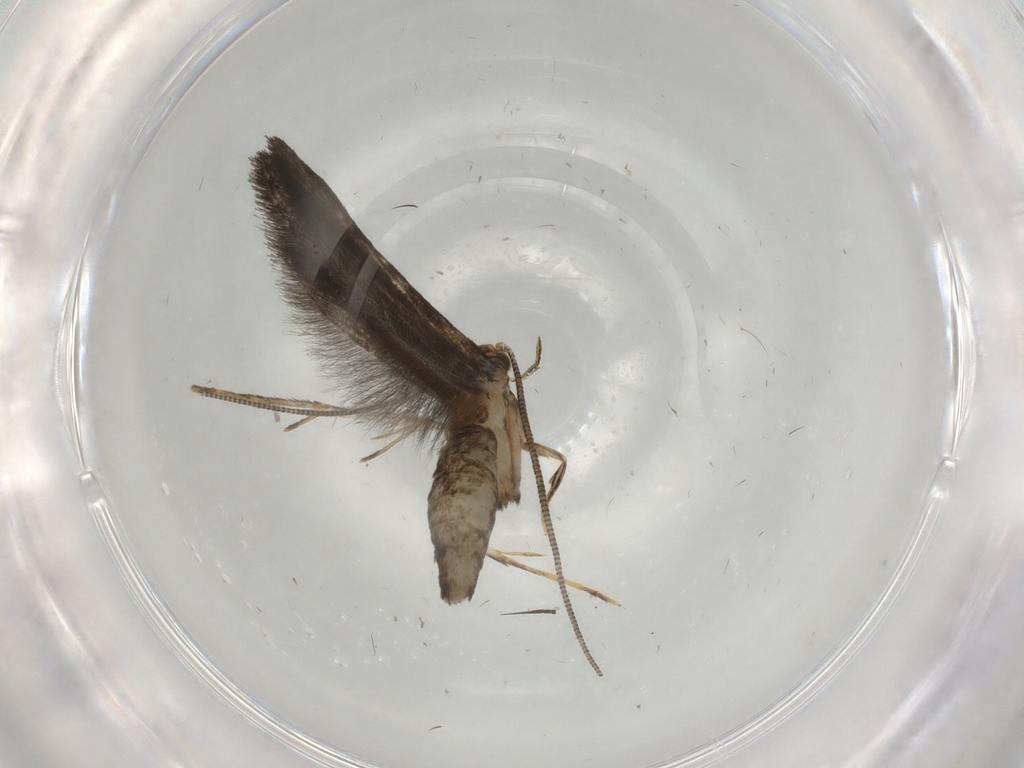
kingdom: Animalia
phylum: Arthropoda
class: Insecta
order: Lepidoptera
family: Tineidae
